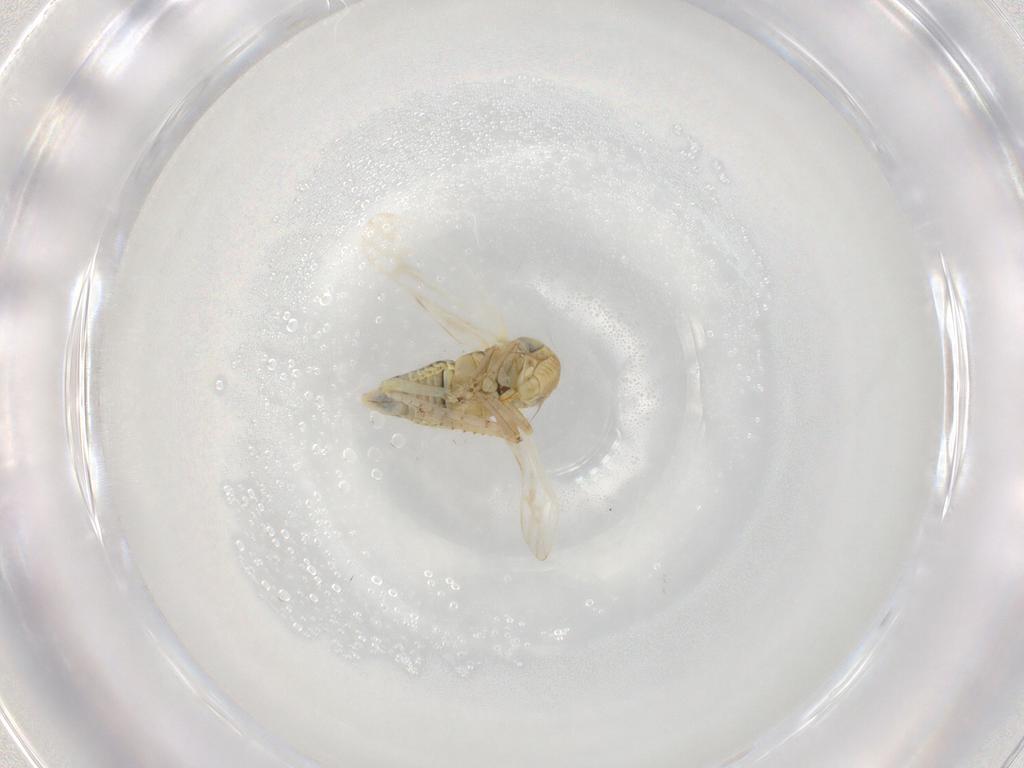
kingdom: Animalia
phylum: Arthropoda
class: Insecta
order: Hemiptera
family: Cicadellidae
